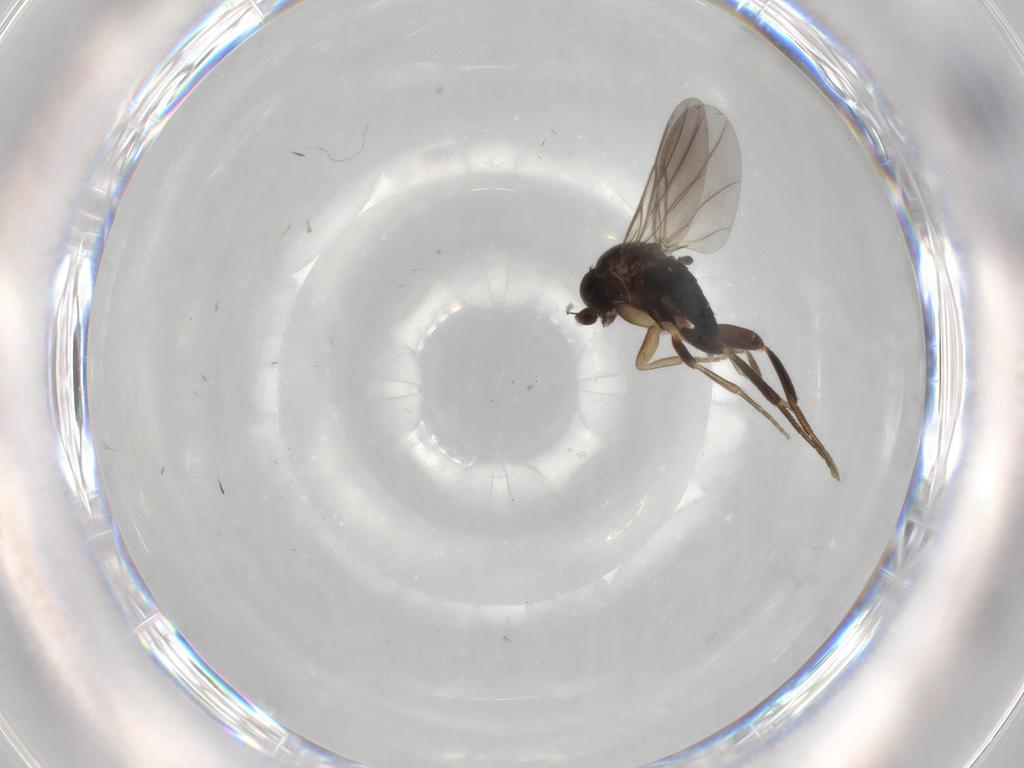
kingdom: Animalia
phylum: Arthropoda
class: Insecta
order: Diptera
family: Phoridae
